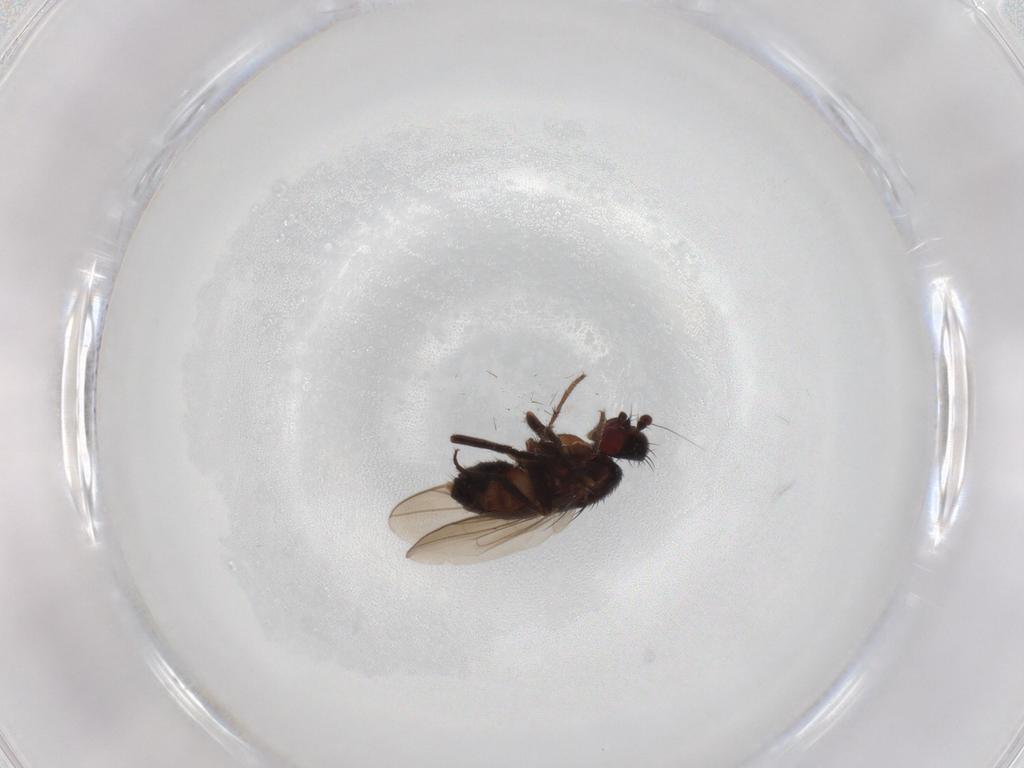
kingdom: Animalia
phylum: Arthropoda
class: Insecta
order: Diptera
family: Sphaeroceridae
